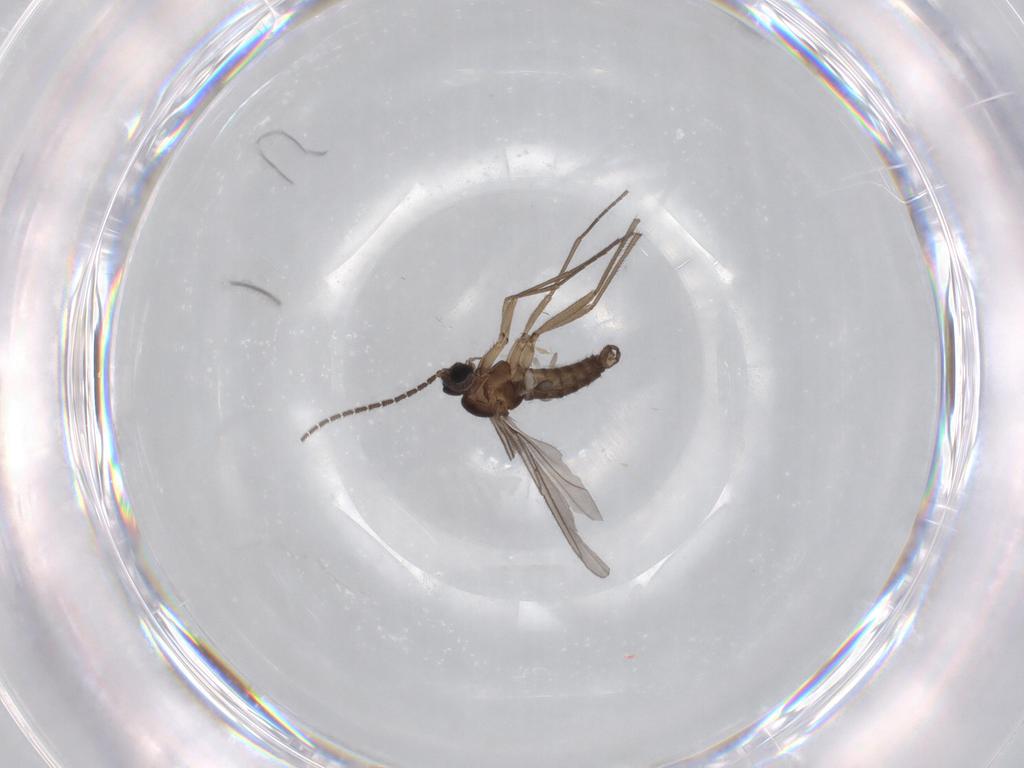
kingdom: Animalia
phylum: Arthropoda
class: Insecta
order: Diptera
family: Sciaridae
